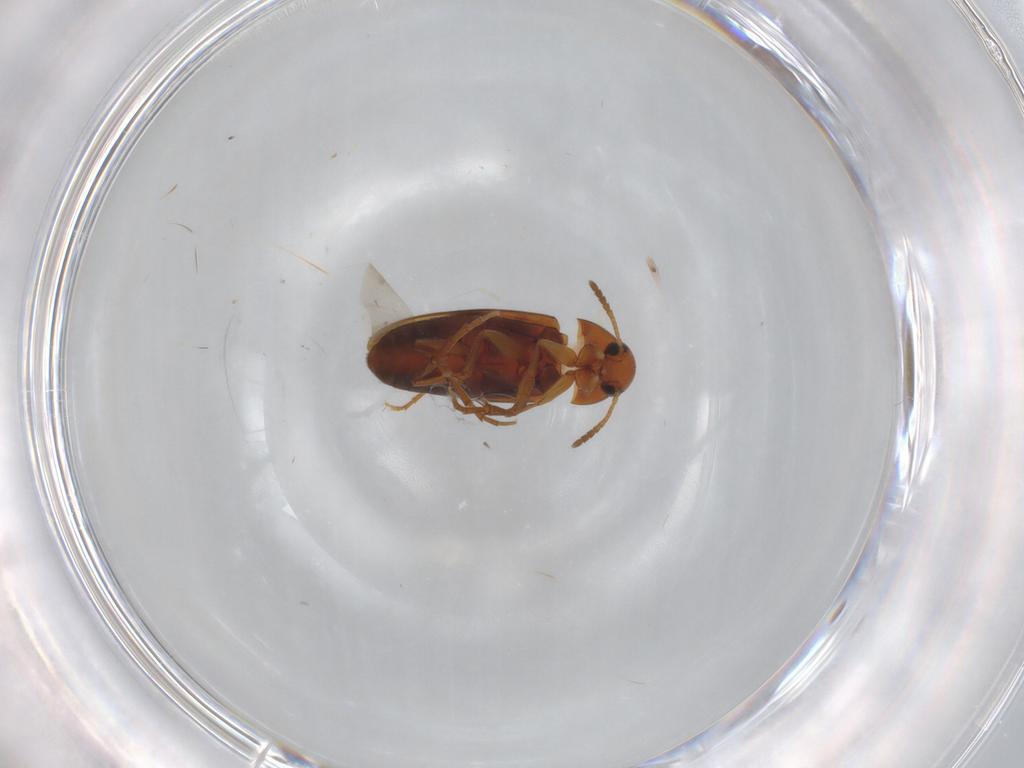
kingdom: Animalia
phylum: Arthropoda
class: Insecta
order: Coleoptera
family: Scraptiidae
